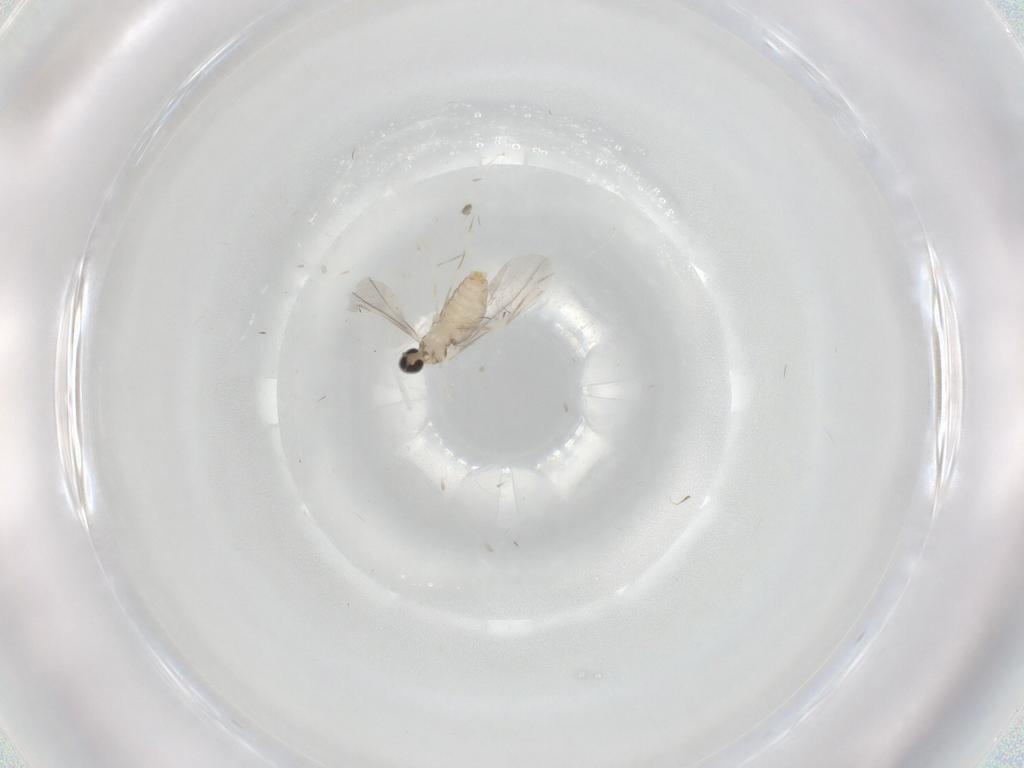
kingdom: Animalia
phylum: Arthropoda
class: Insecta
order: Diptera
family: Cecidomyiidae
